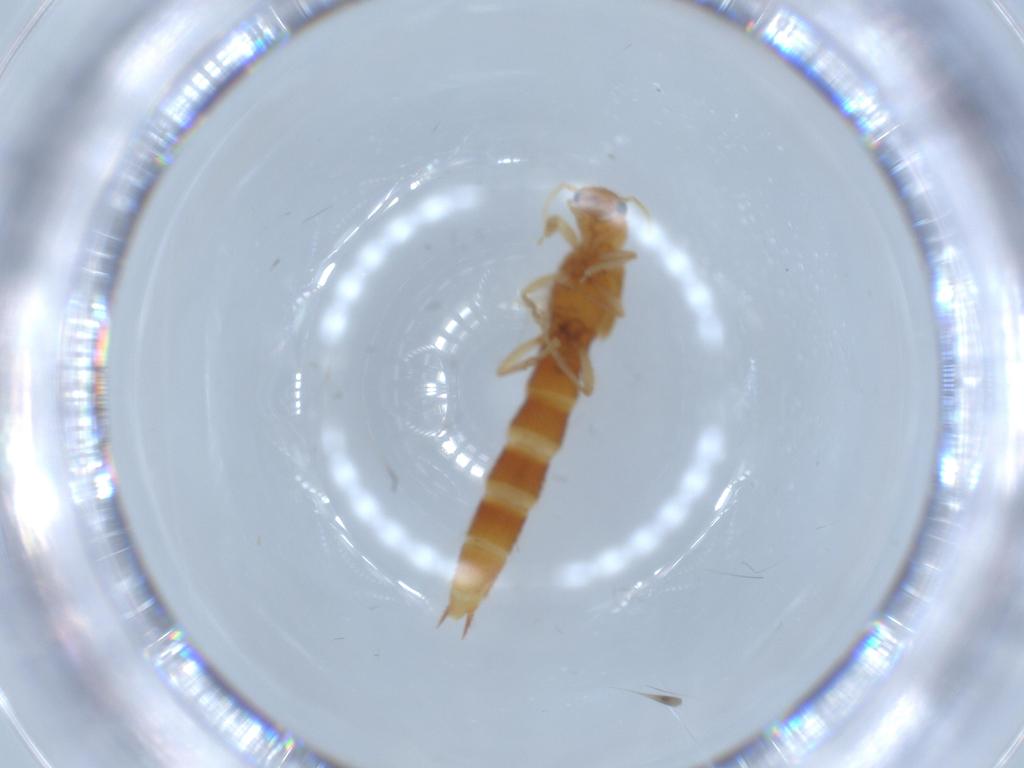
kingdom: Animalia
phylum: Arthropoda
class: Insecta
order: Coleoptera
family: Staphylinidae
